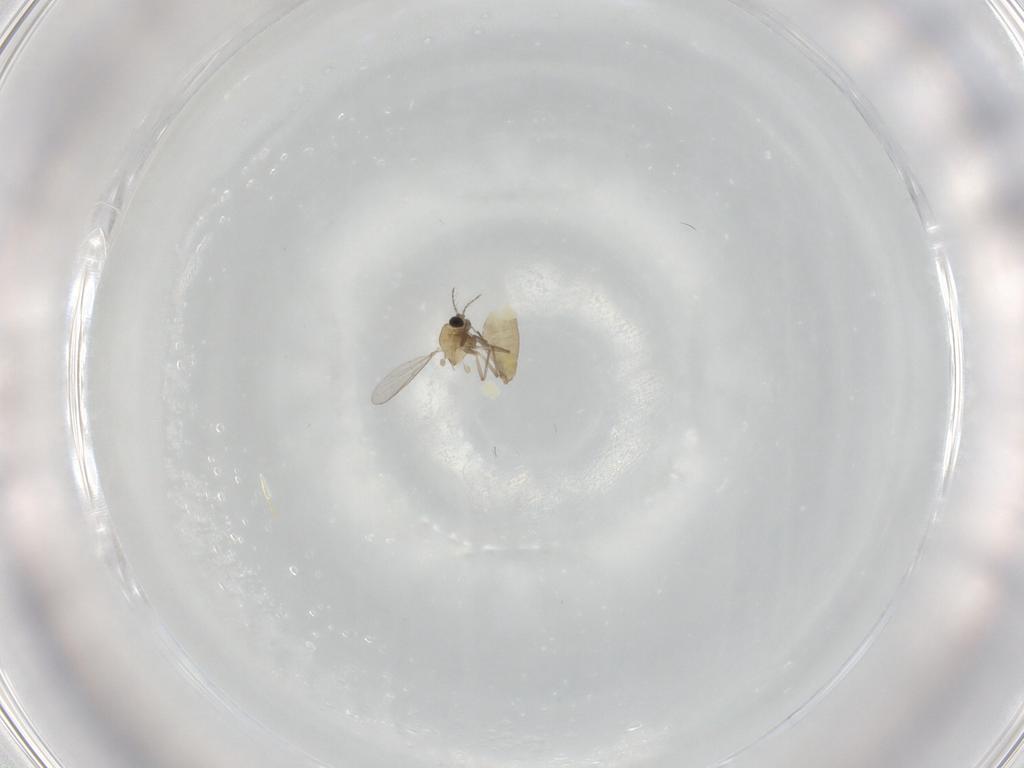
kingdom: Animalia
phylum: Arthropoda
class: Insecta
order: Diptera
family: Chironomidae
